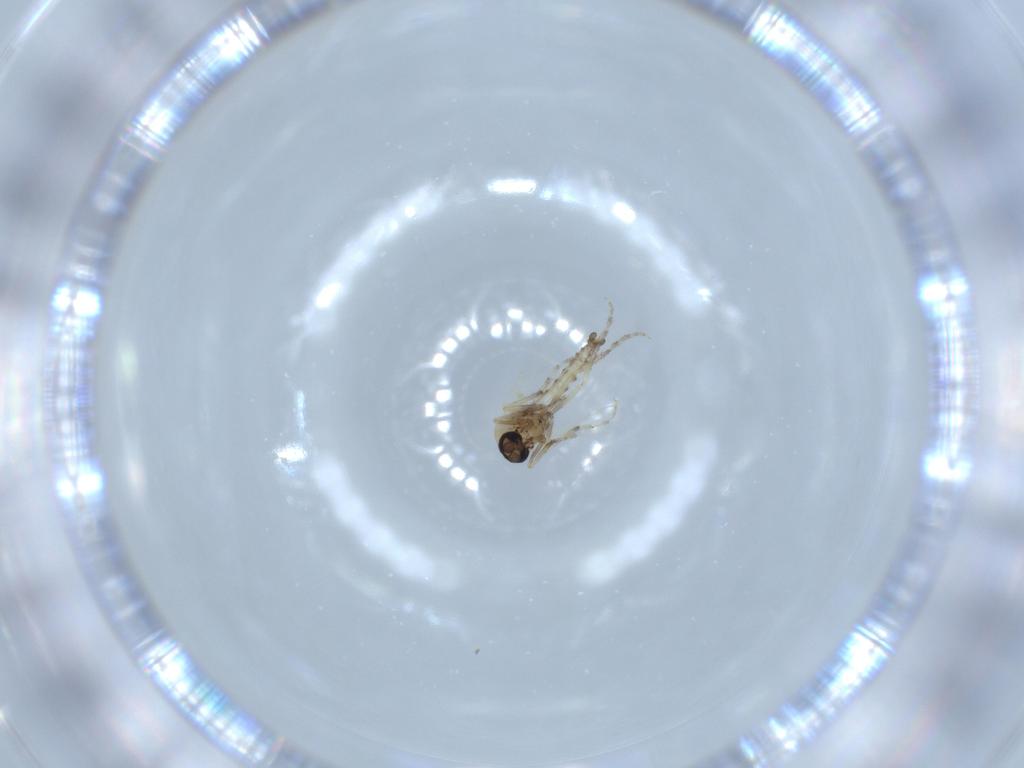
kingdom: Animalia
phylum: Arthropoda
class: Insecta
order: Diptera
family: Ceratopogonidae
